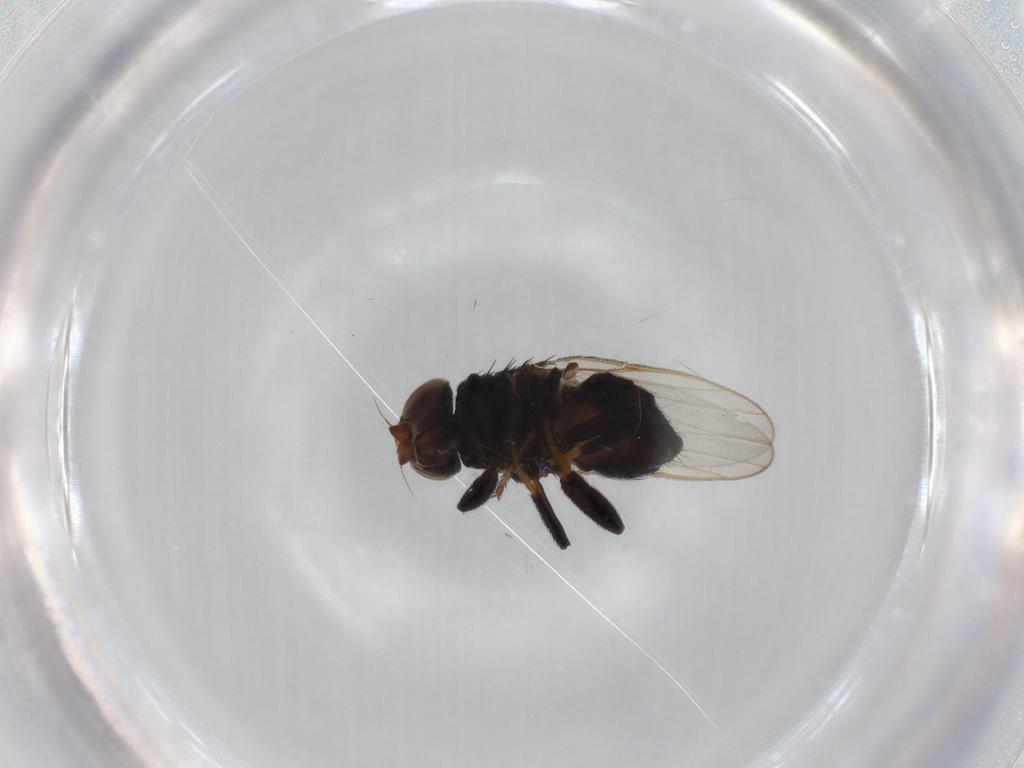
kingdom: Animalia
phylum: Arthropoda
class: Insecta
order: Diptera
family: Chloropidae
